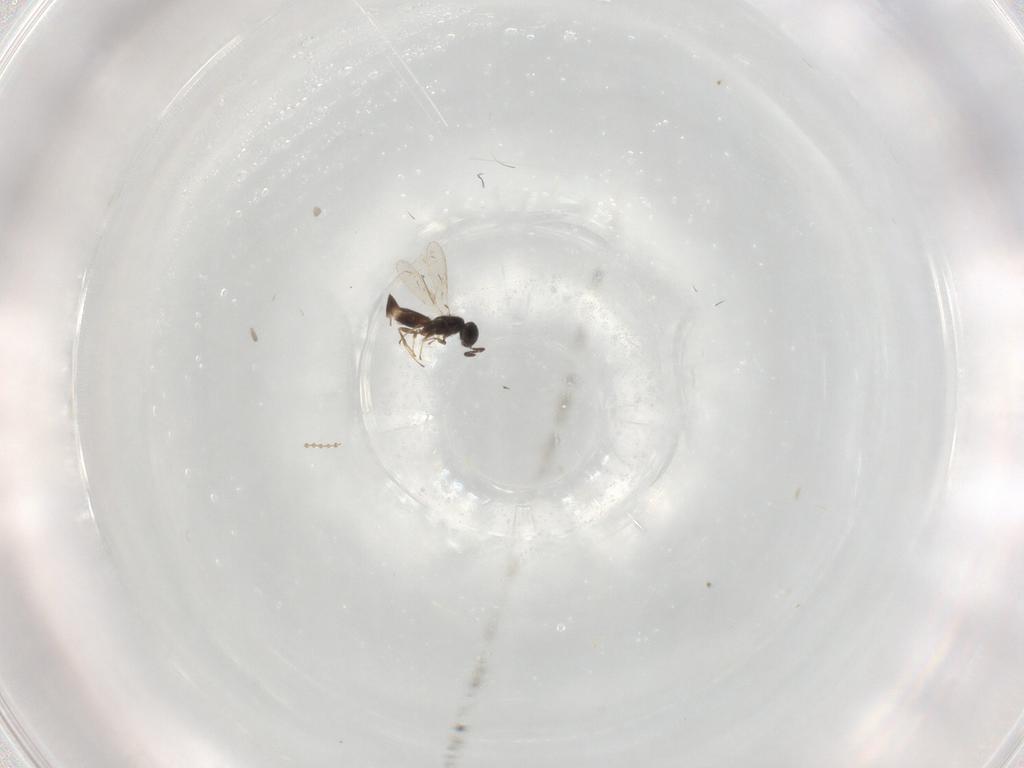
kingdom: Animalia
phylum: Arthropoda
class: Insecta
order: Hymenoptera
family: Scelionidae
